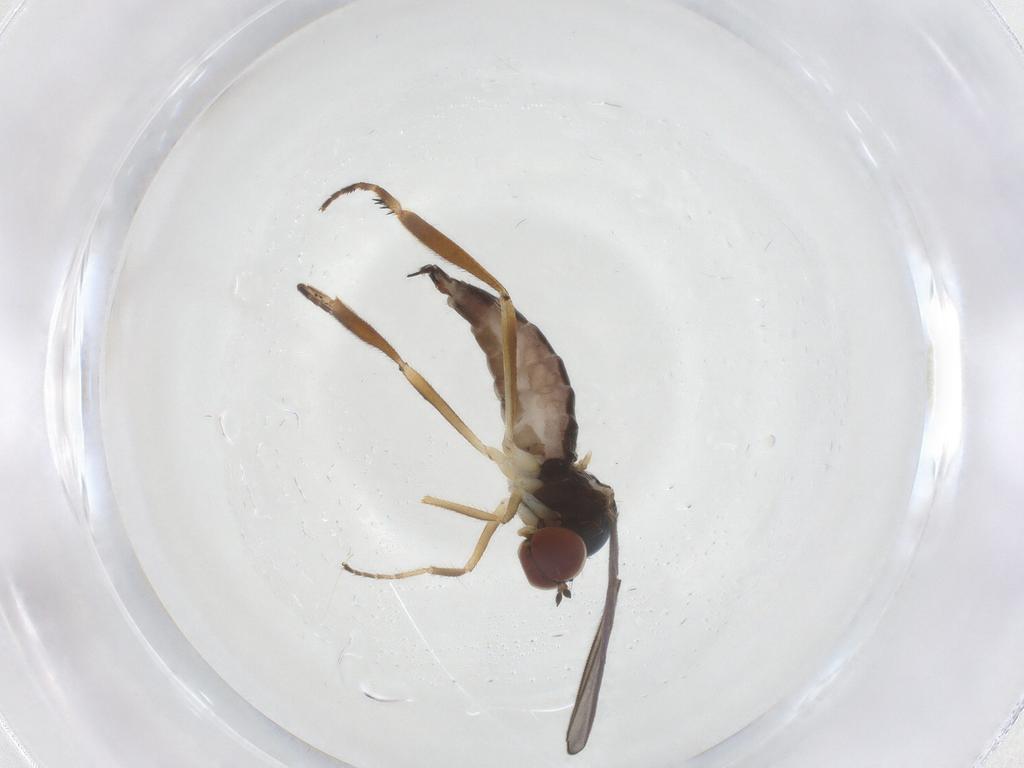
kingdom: Animalia
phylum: Arthropoda
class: Insecta
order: Diptera
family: Hybotidae
